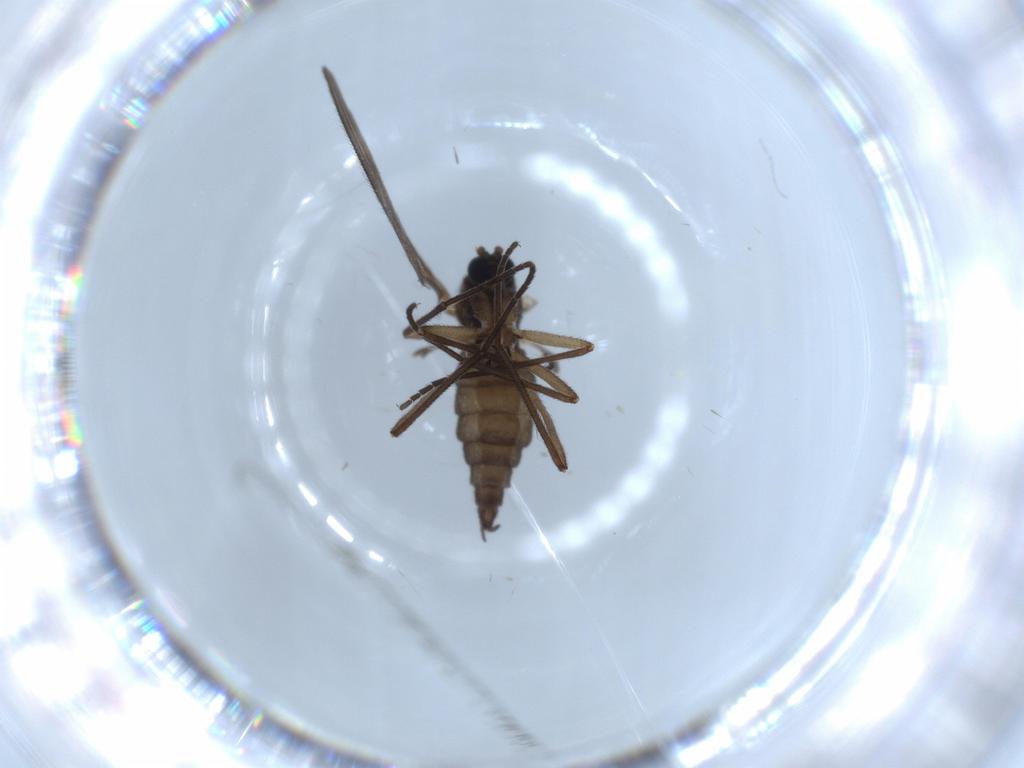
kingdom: Animalia
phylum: Arthropoda
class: Insecta
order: Diptera
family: Sciaridae
